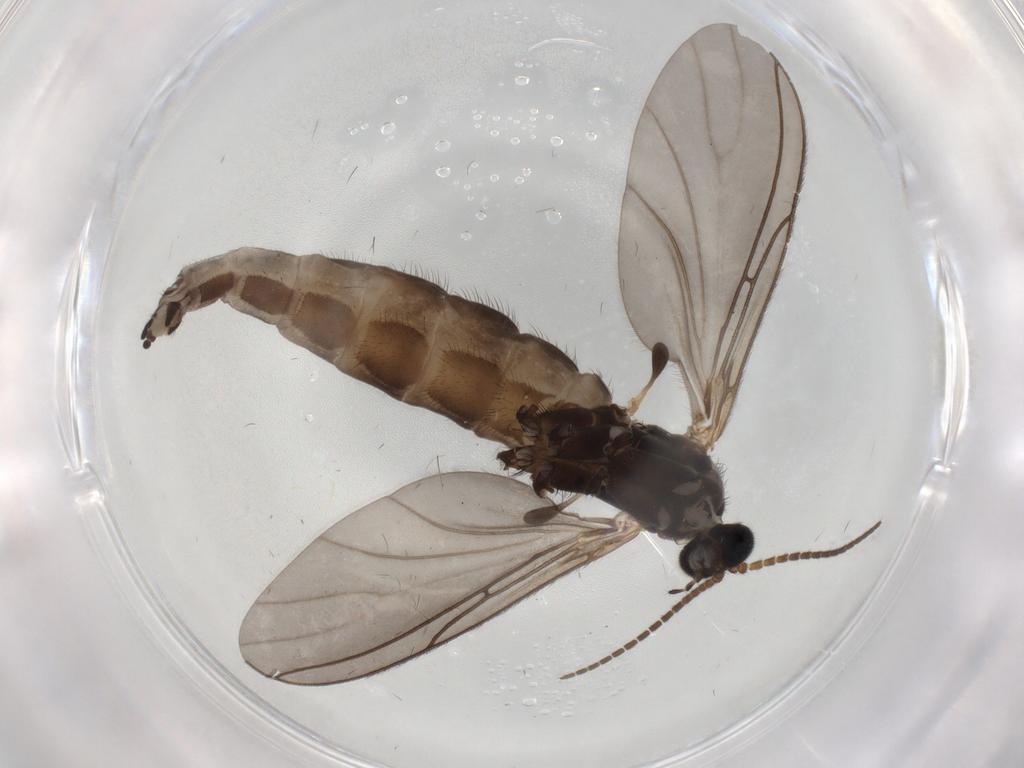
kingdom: Animalia
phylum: Arthropoda
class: Insecta
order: Diptera
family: Sciaridae
